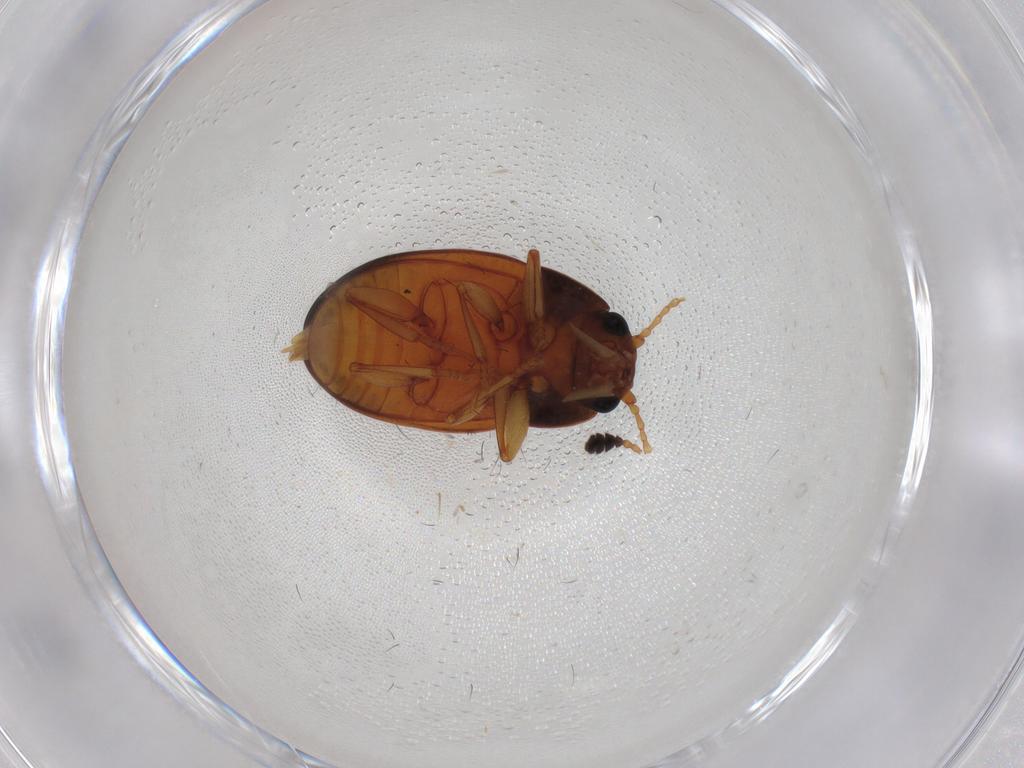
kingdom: Animalia
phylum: Arthropoda
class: Insecta
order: Coleoptera
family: Erotylidae
